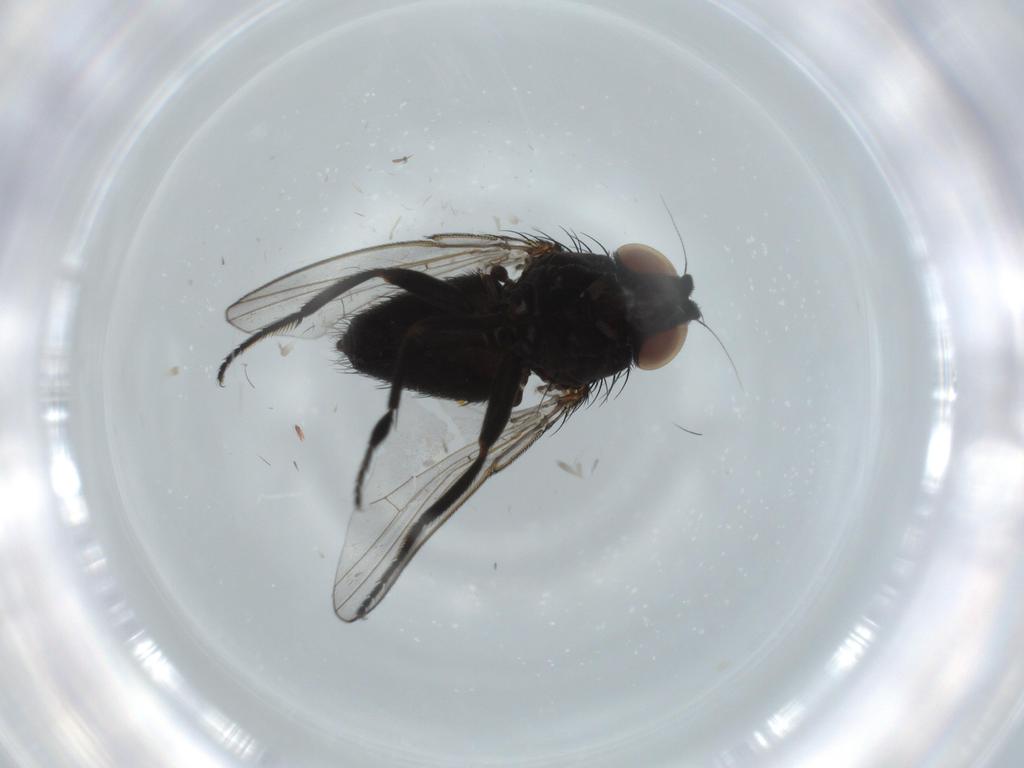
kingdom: Animalia
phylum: Arthropoda
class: Insecta
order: Diptera
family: Milichiidae
